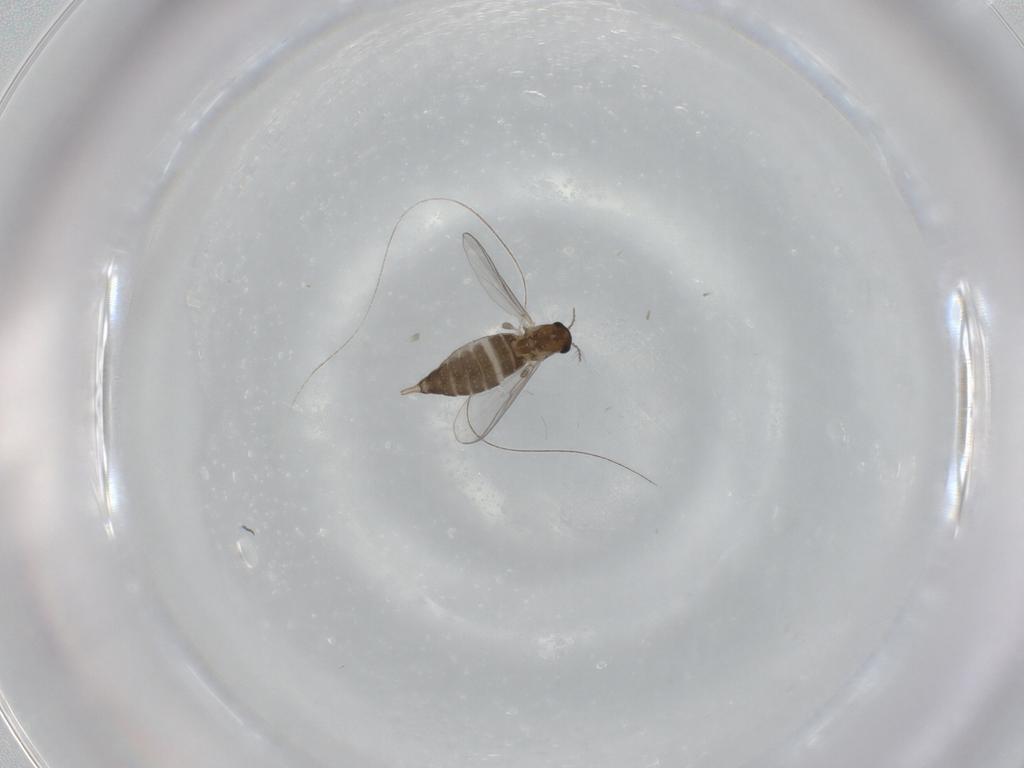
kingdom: Animalia
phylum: Arthropoda
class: Insecta
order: Diptera
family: Chironomidae
